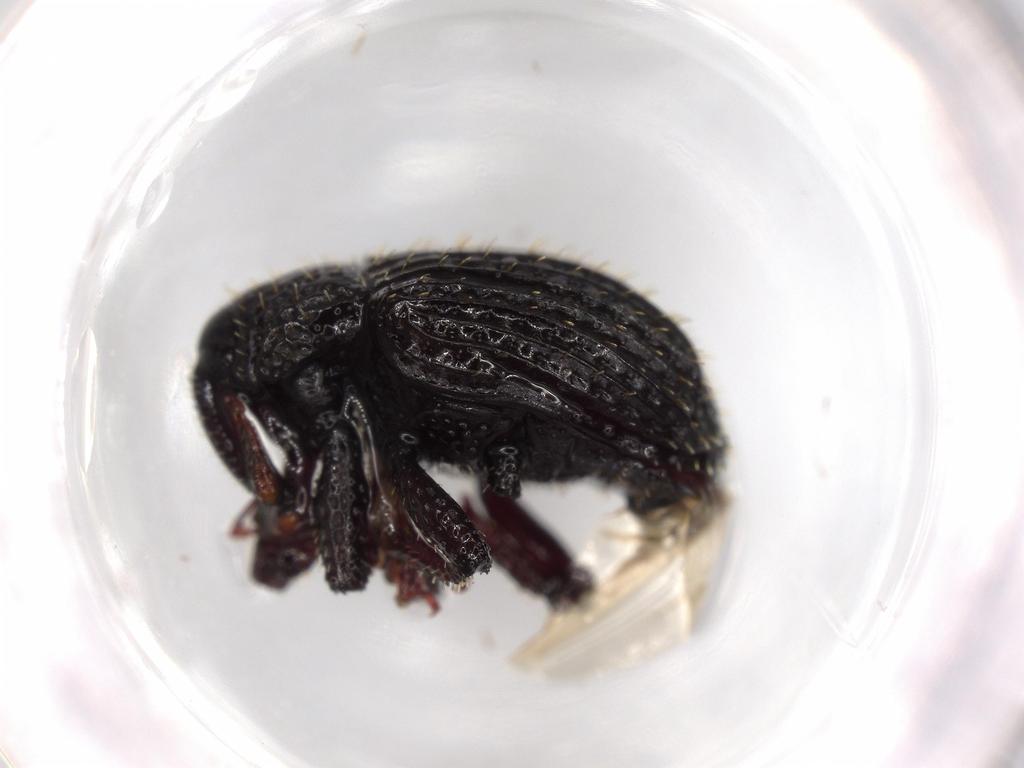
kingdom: Animalia
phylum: Arthropoda
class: Insecta
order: Coleoptera
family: Curculionidae
